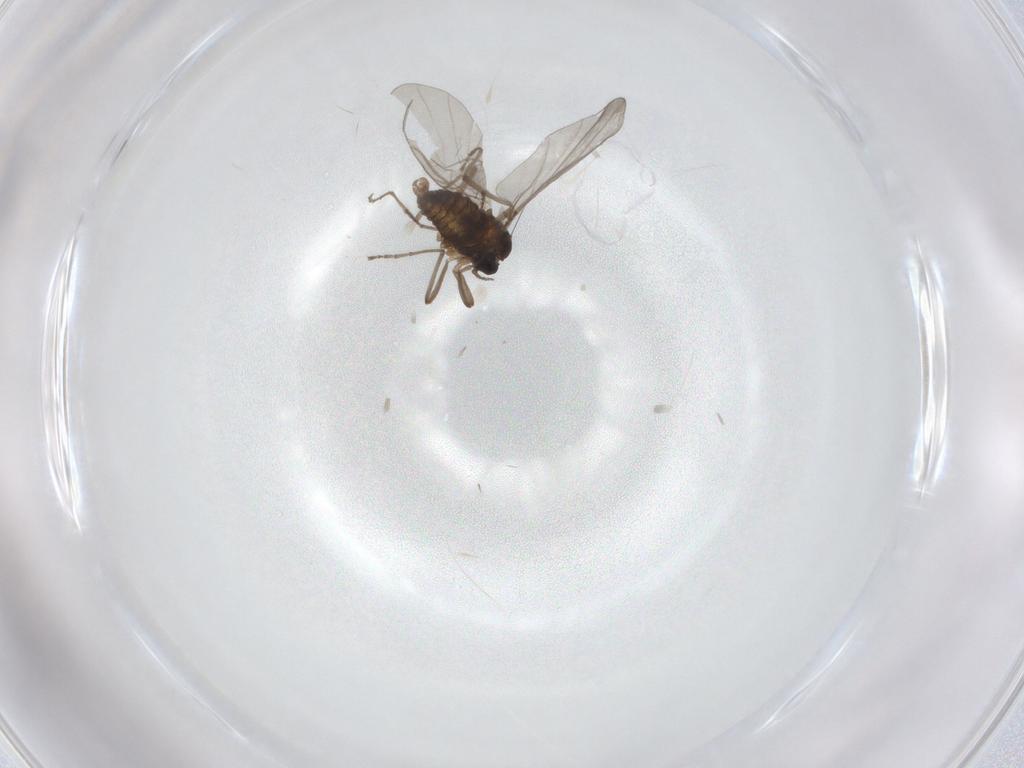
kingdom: Animalia
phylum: Arthropoda
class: Insecta
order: Diptera
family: Cecidomyiidae
